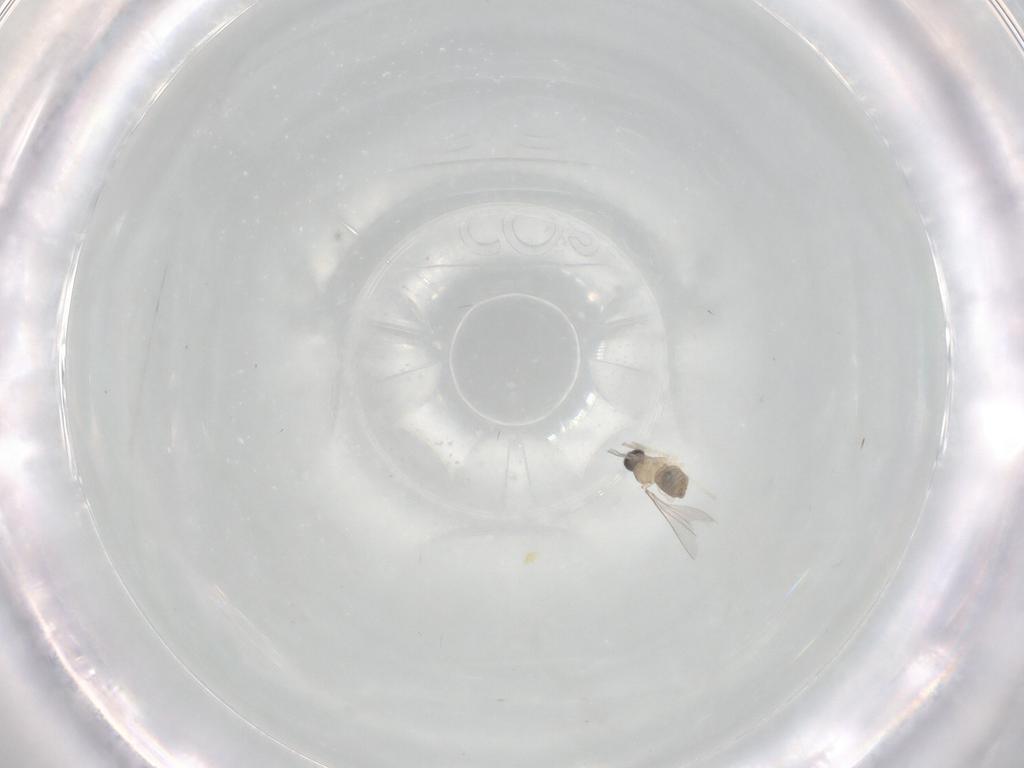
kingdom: Animalia
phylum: Arthropoda
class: Insecta
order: Diptera
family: Cecidomyiidae
